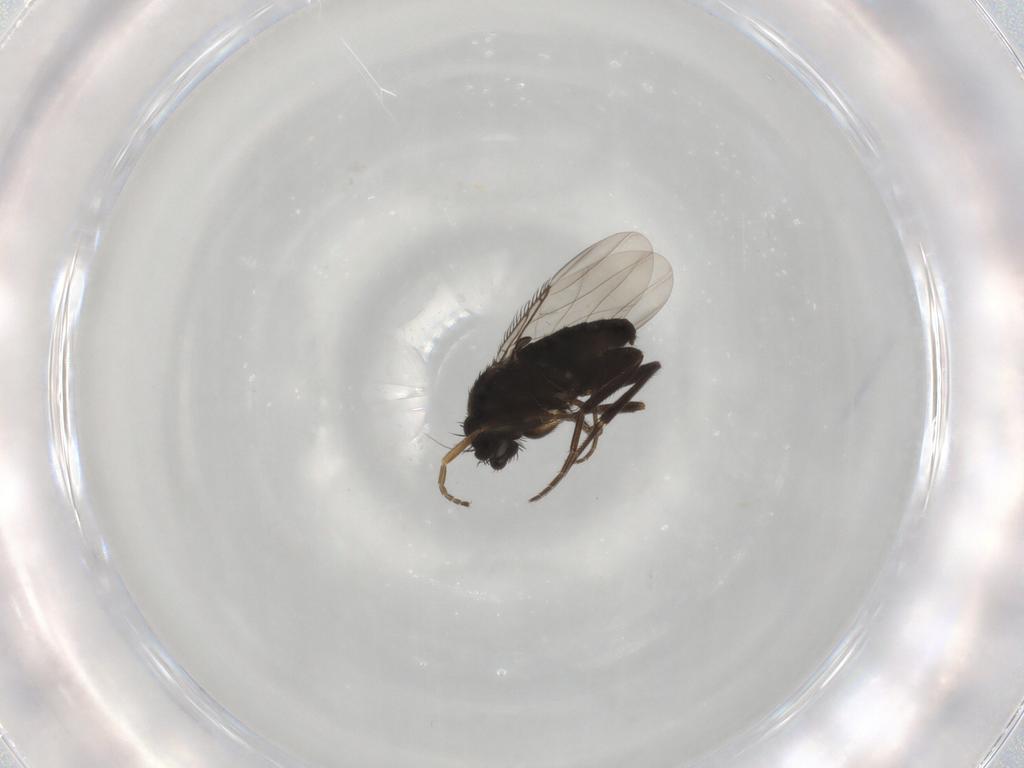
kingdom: Animalia
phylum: Arthropoda
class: Insecta
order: Diptera
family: Phoridae
